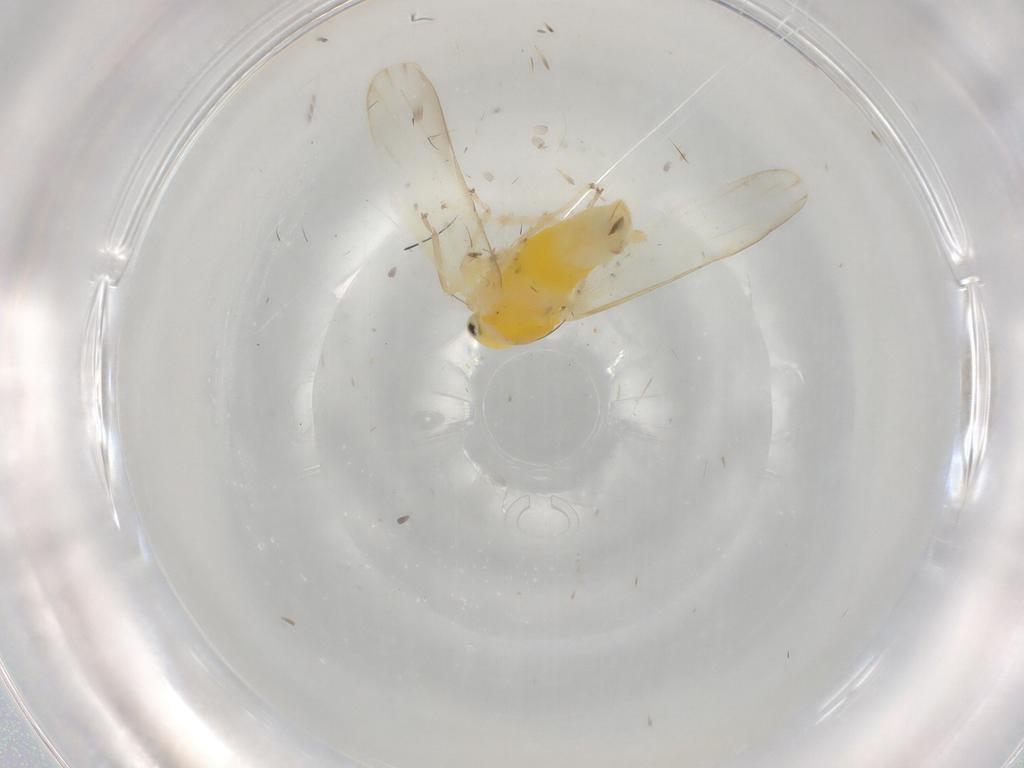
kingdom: Animalia
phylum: Arthropoda
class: Insecta
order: Hemiptera
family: Cicadellidae
